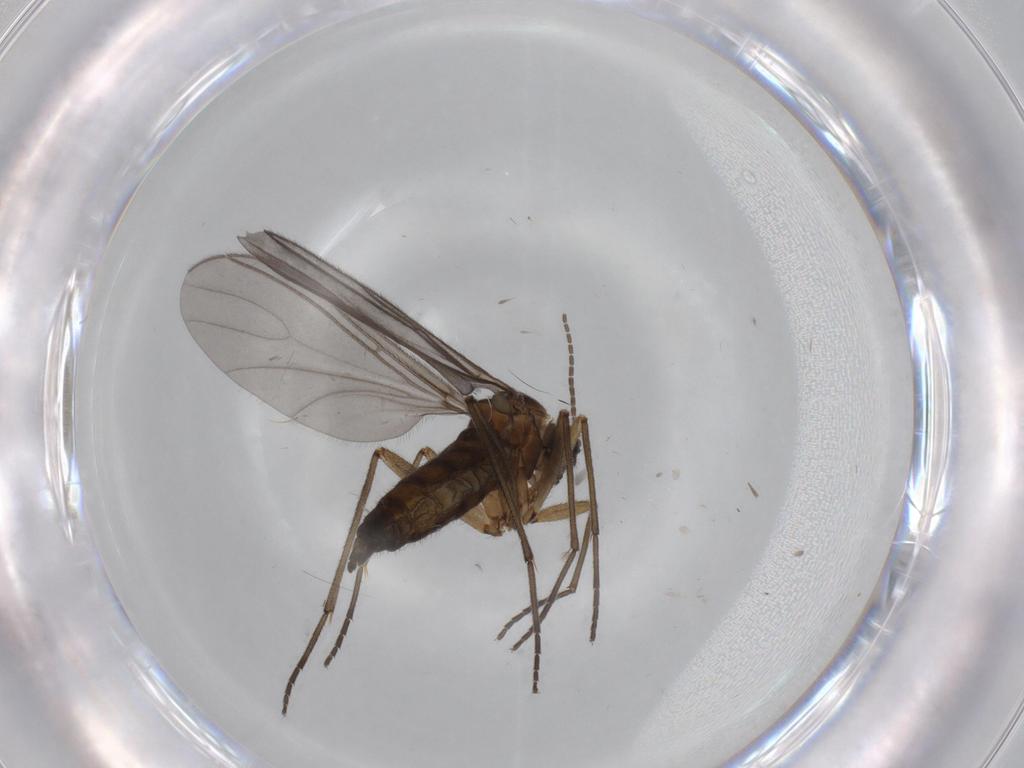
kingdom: Animalia
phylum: Arthropoda
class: Insecta
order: Diptera
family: Sciaridae
